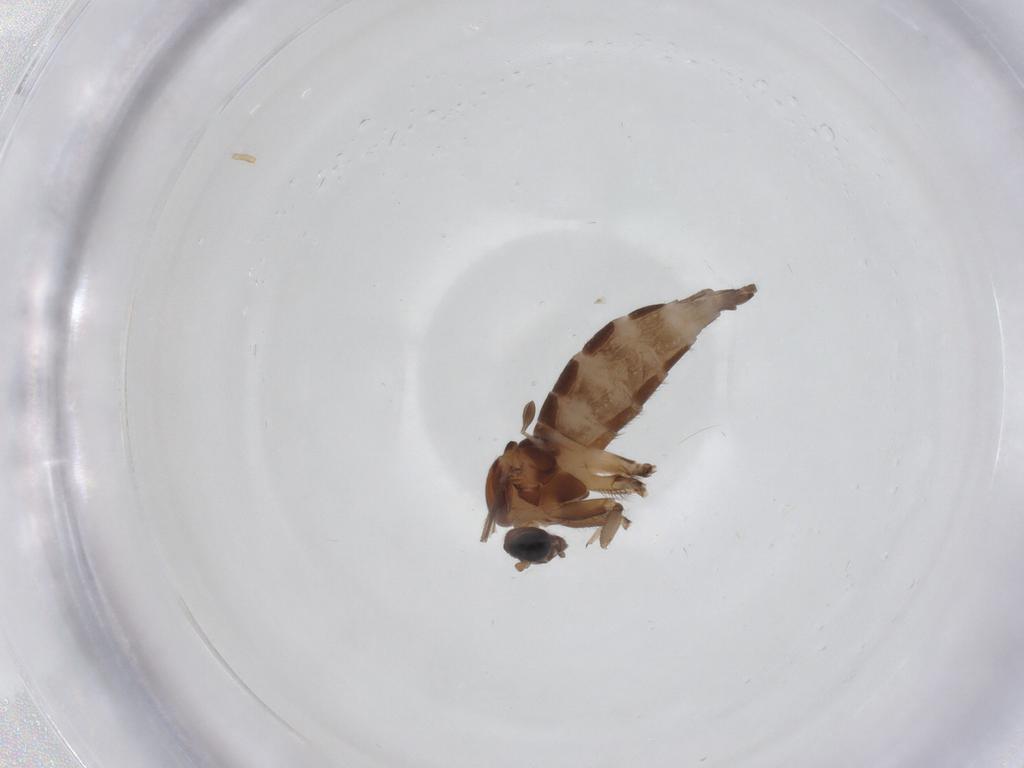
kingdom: Animalia
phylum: Arthropoda
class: Insecta
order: Diptera
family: Sciaridae
